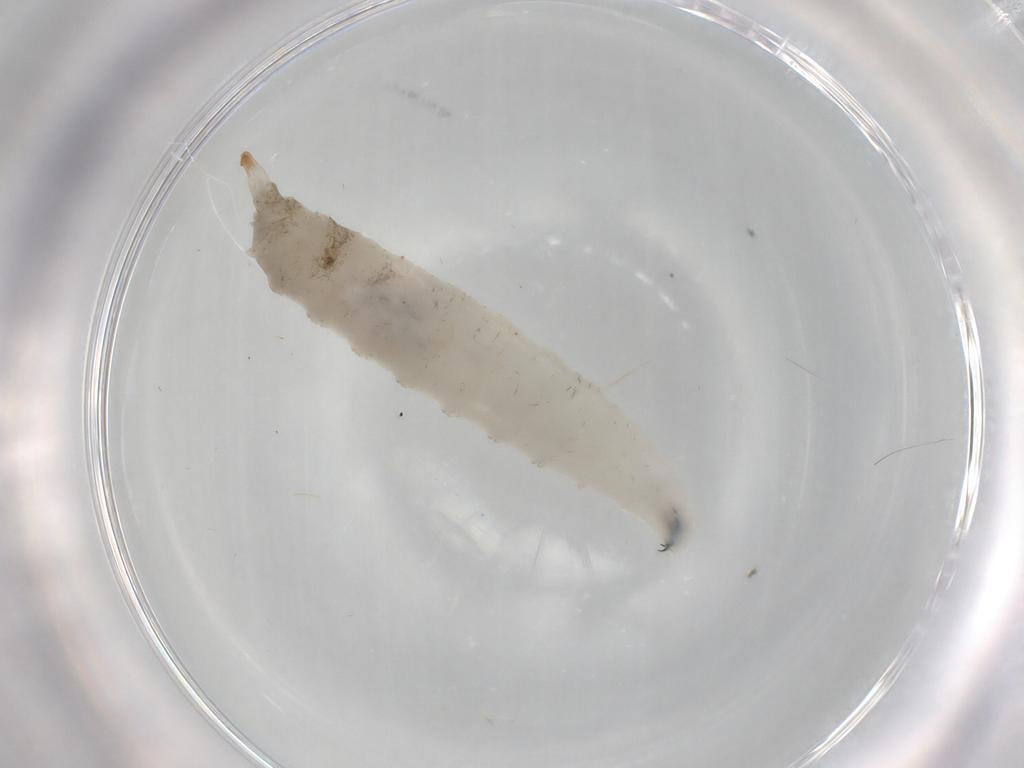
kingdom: Animalia
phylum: Arthropoda
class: Insecta
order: Diptera
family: Drosophilidae
